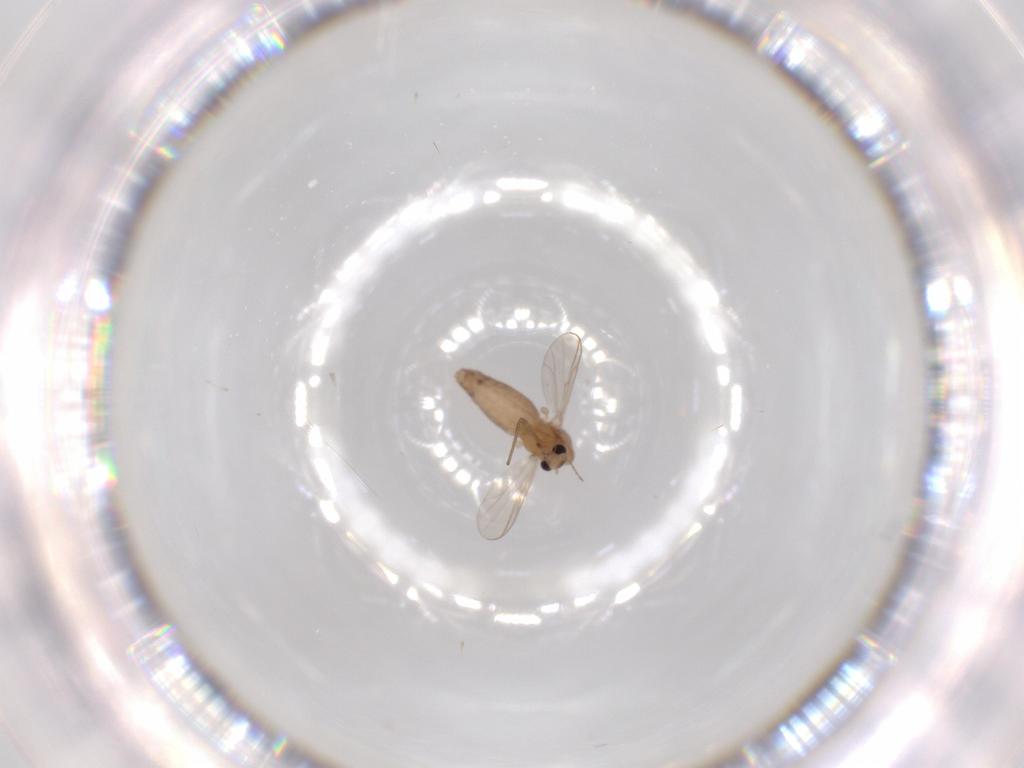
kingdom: Animalia
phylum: Arthropoda
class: Insecta
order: Diptera
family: Chironomidae
